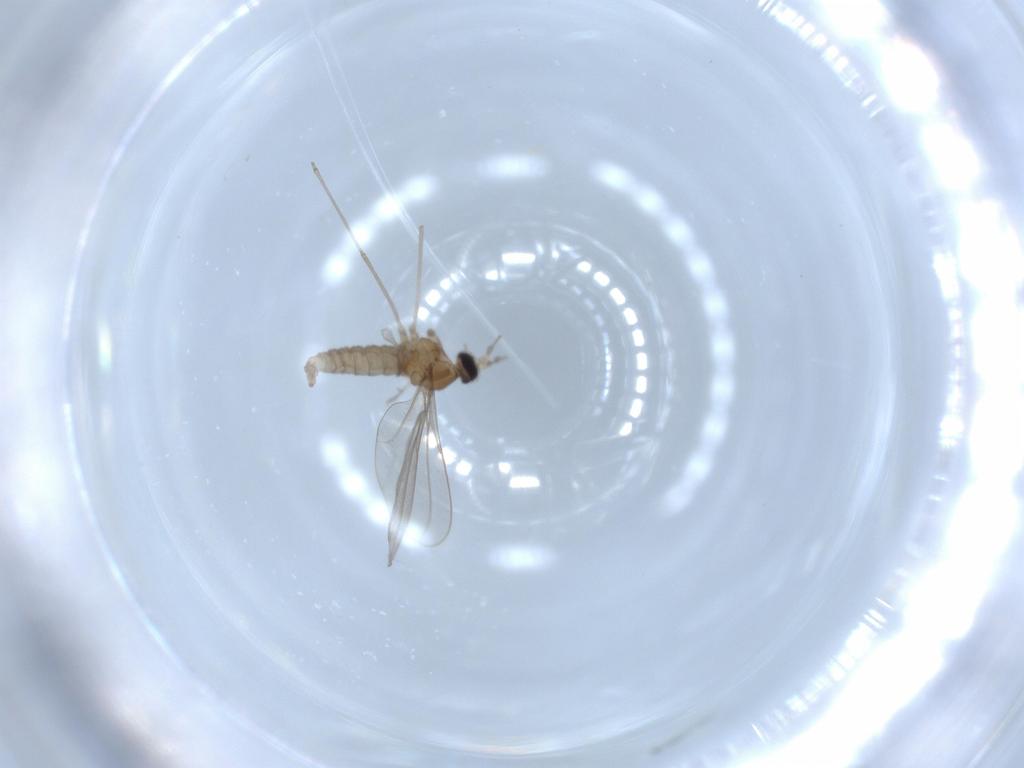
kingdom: Animalia
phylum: Arthropoda
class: Insecta
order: Diptera
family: Cecidomyiidae
